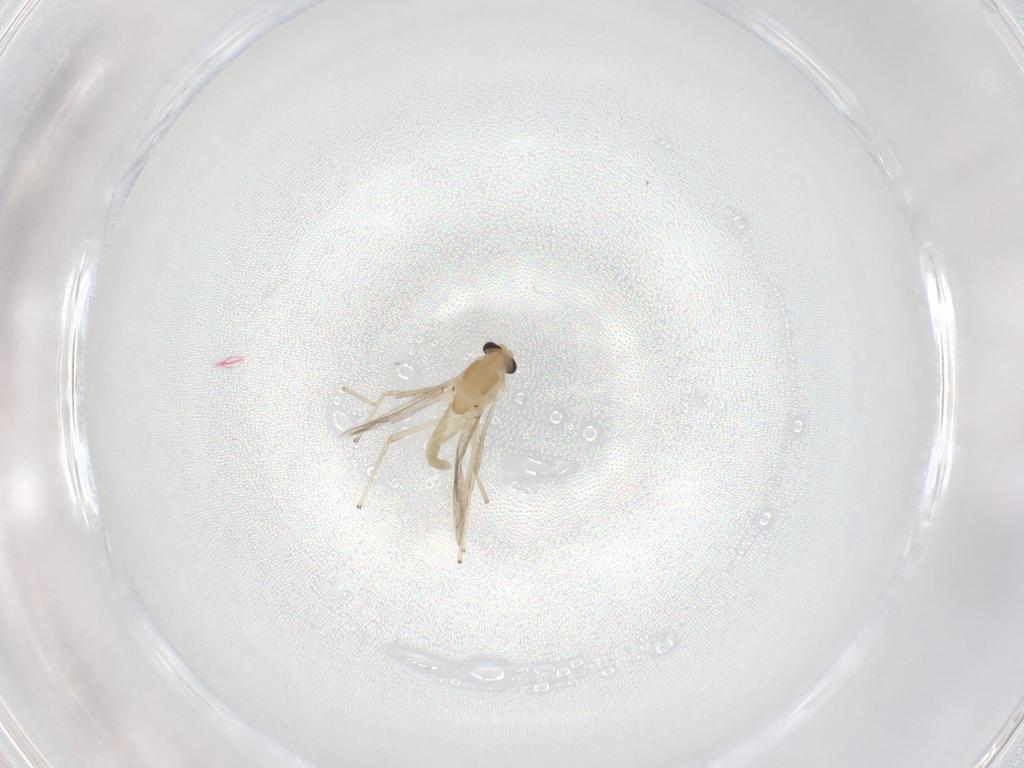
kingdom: Animalia
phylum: Arthropoda
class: Insecta
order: Diptera
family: Chironomidae
